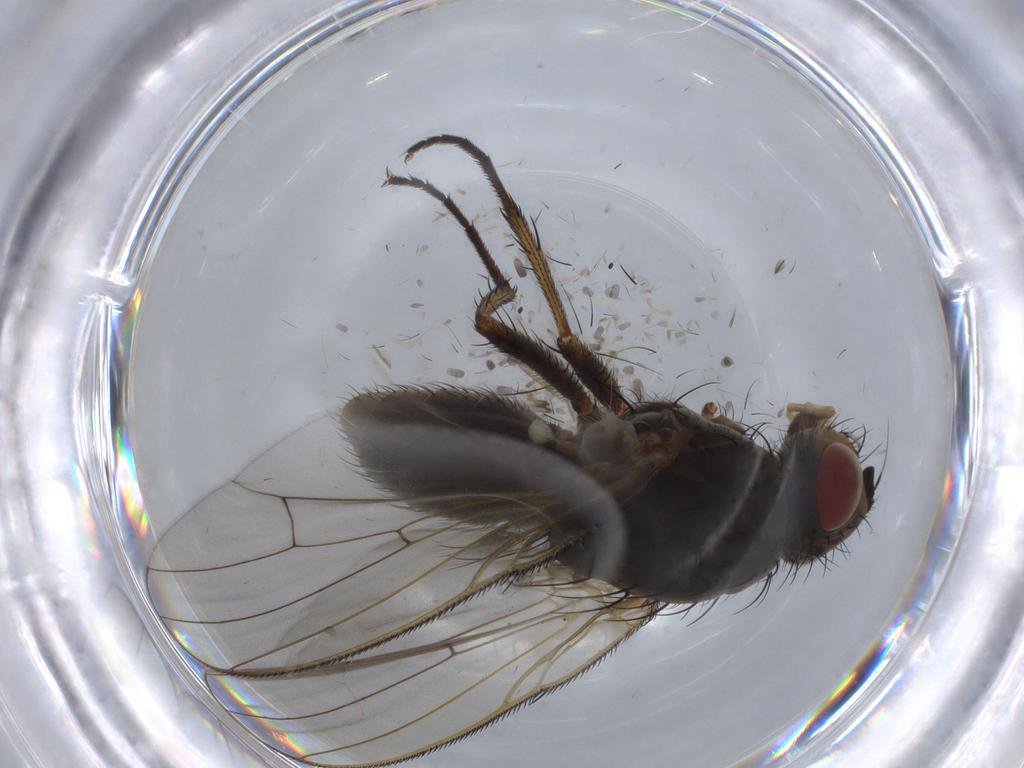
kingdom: Animalia
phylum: Arthropoda
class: Insecta
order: Diptera
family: Anthomyiidae
